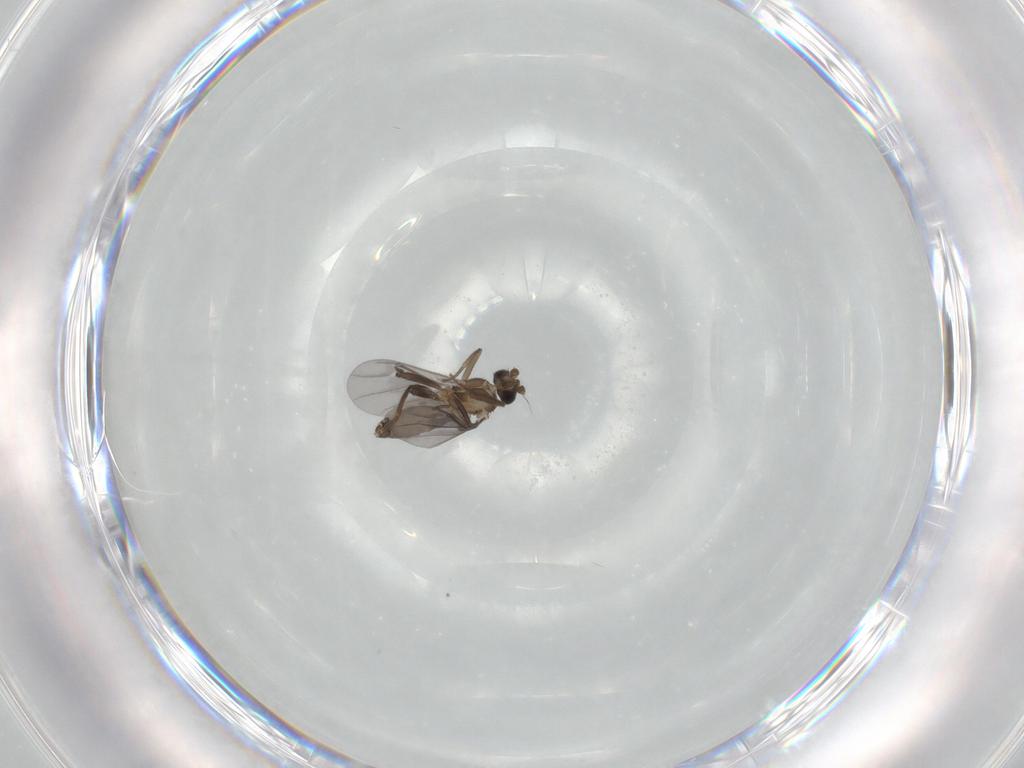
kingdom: Animalia
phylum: Arthropoda
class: Insecta
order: Diptera
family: Phoridae
